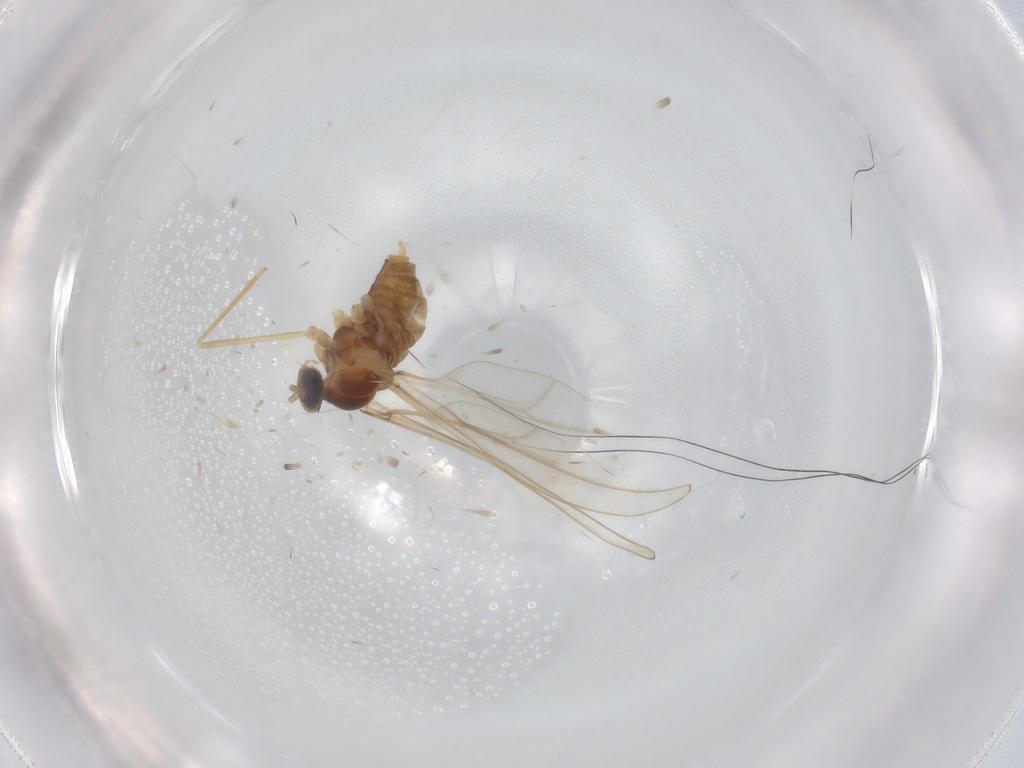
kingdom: Animalia
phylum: Arthropoda
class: Insecta
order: Diptera
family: Cecidomyiidae
